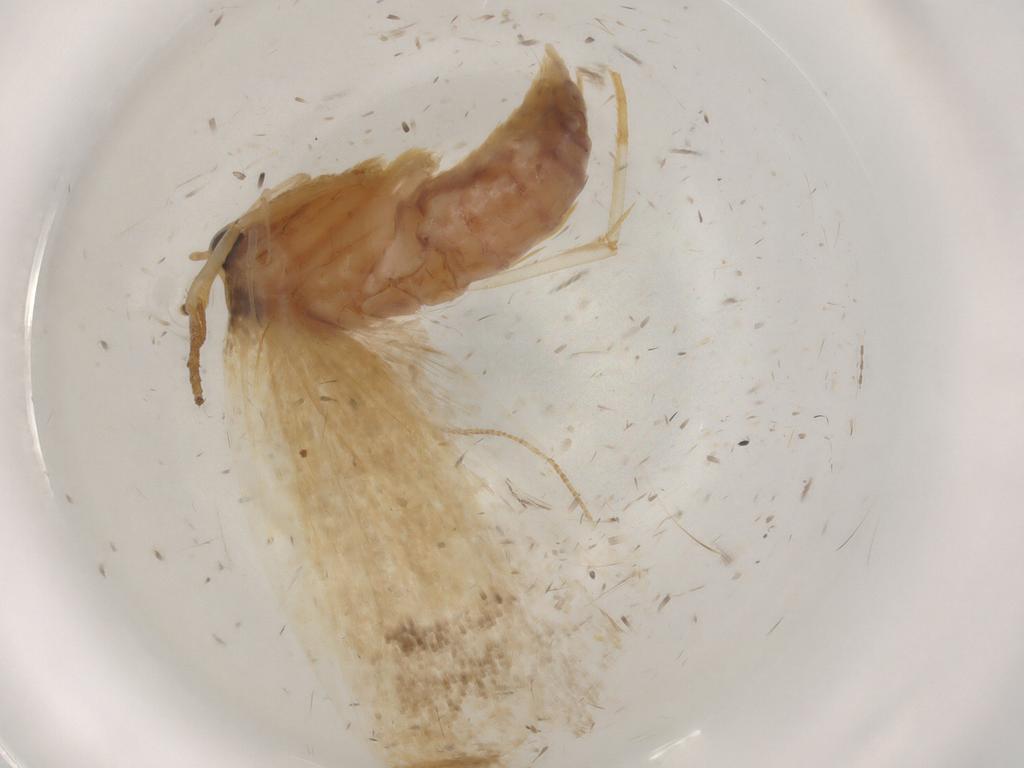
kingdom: Animalia
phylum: Arthropoda
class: Insecta
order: Lepidoptera
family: Depressariidae
